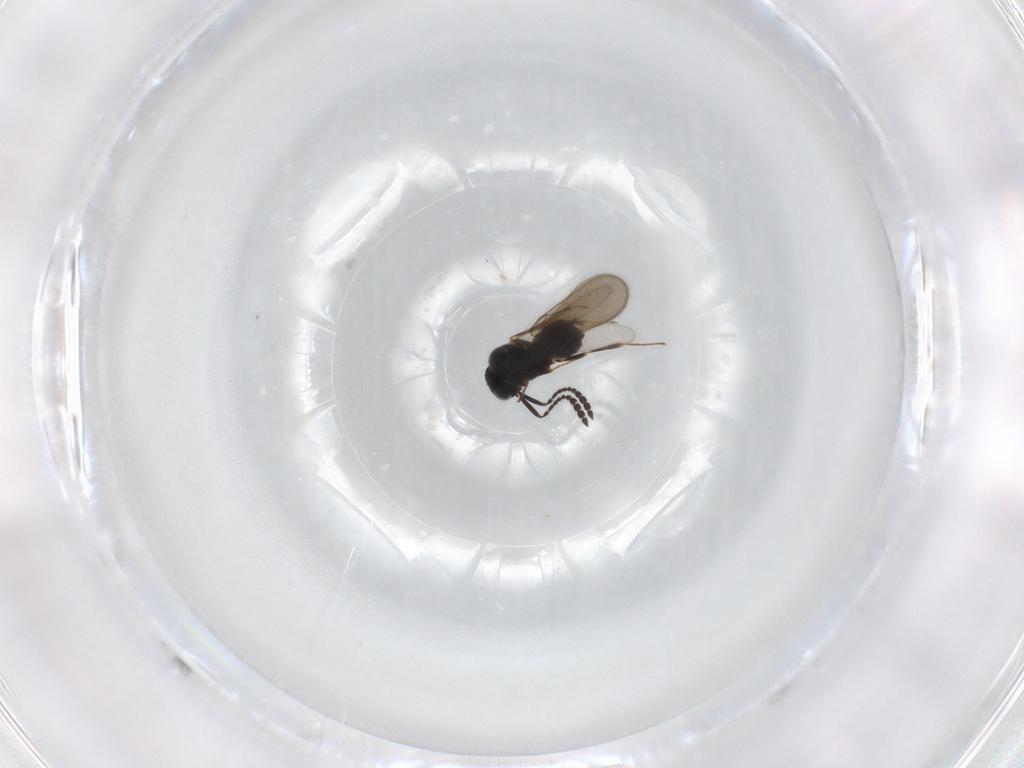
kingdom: Animalia
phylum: Arthropoda
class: Insecta
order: Hymenoptera
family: Scelionidae
